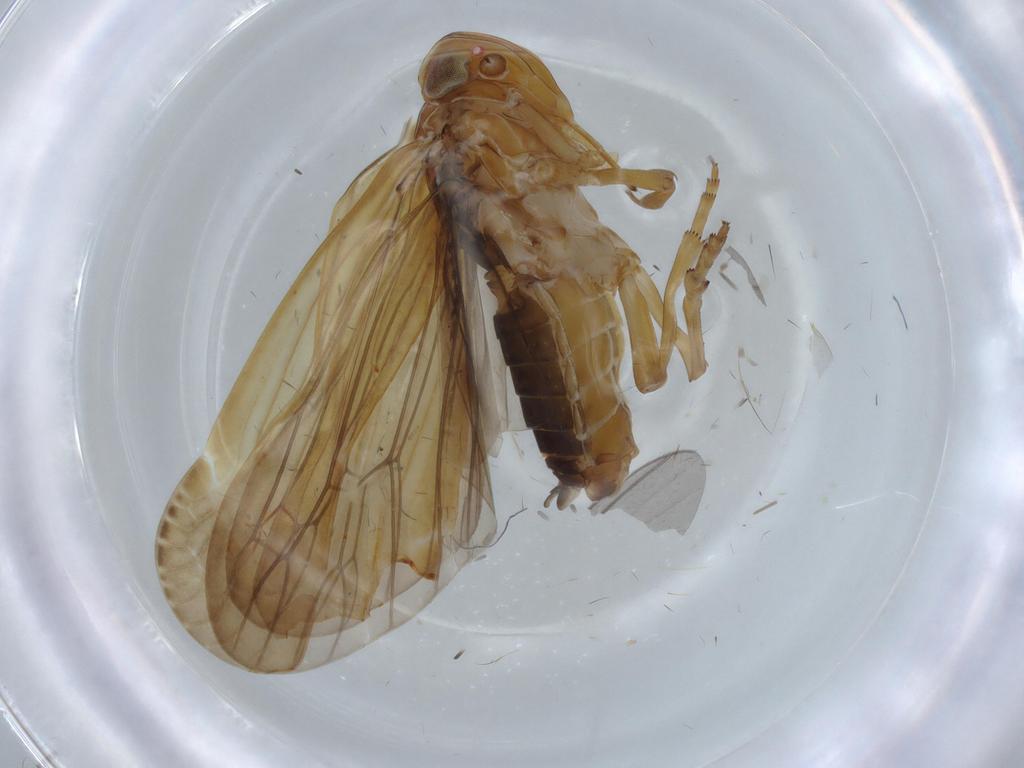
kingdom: Animalia
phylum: Arthropoda
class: Insecta
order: Hemiptera
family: Achilidae
